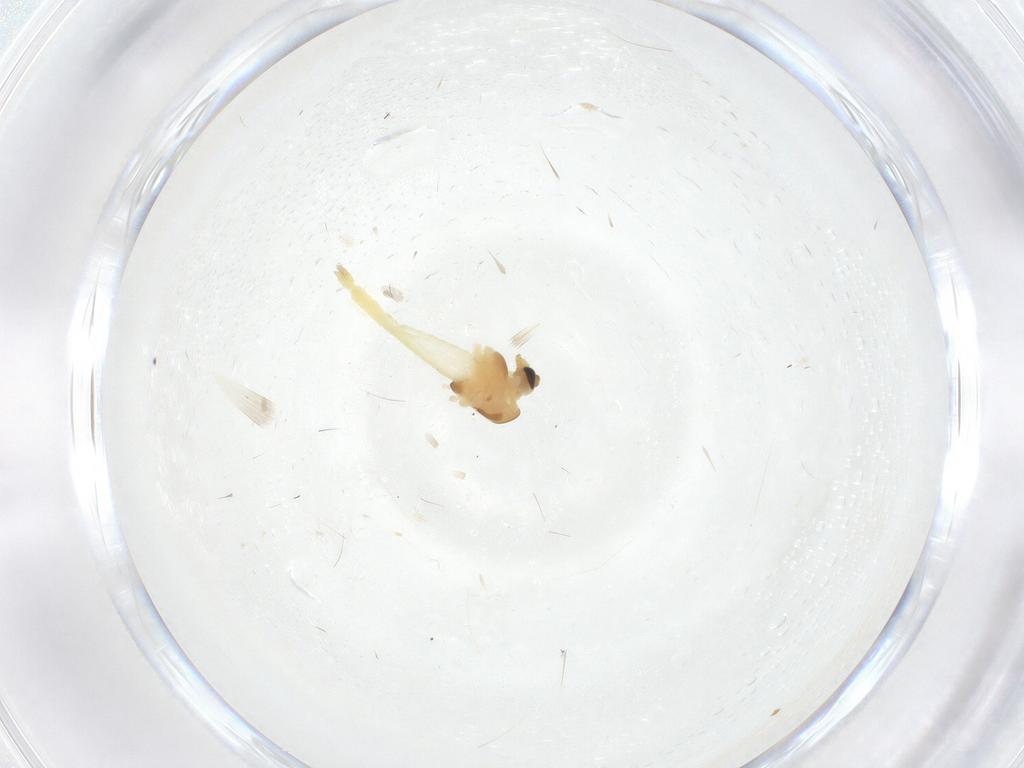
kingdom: Animalia
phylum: Arthropoda
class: Insecta
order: Diptera
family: Chironomidae
